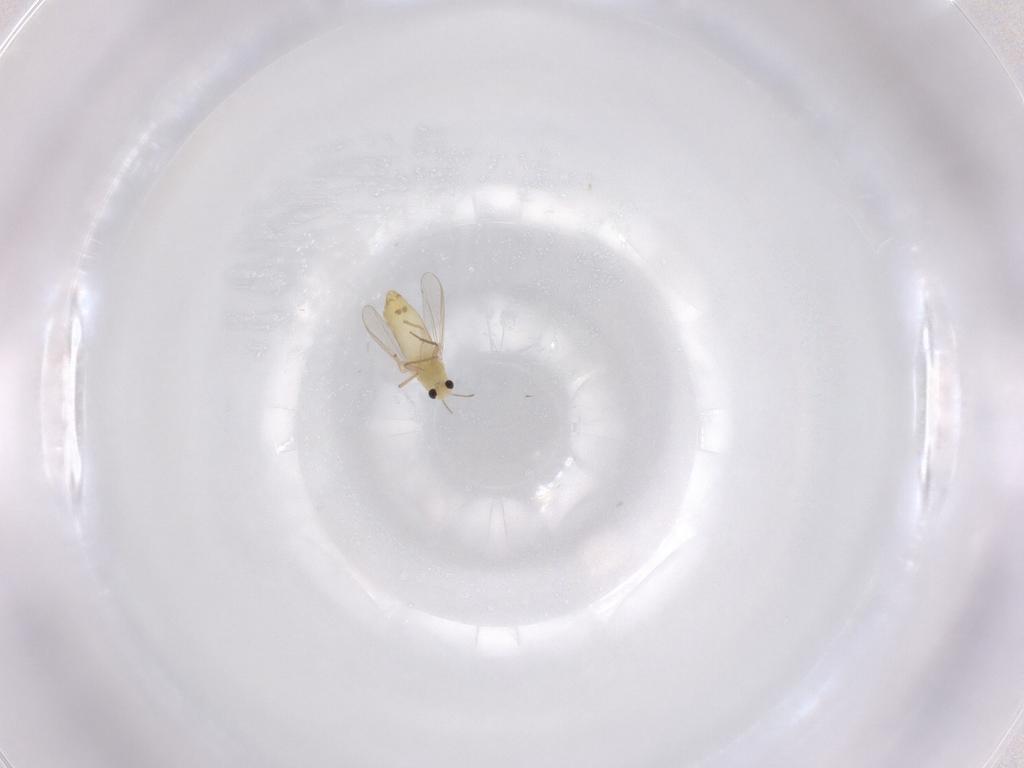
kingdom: Animalia
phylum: Arthropoda
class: Insecta
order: Diptera
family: Chironomidae
